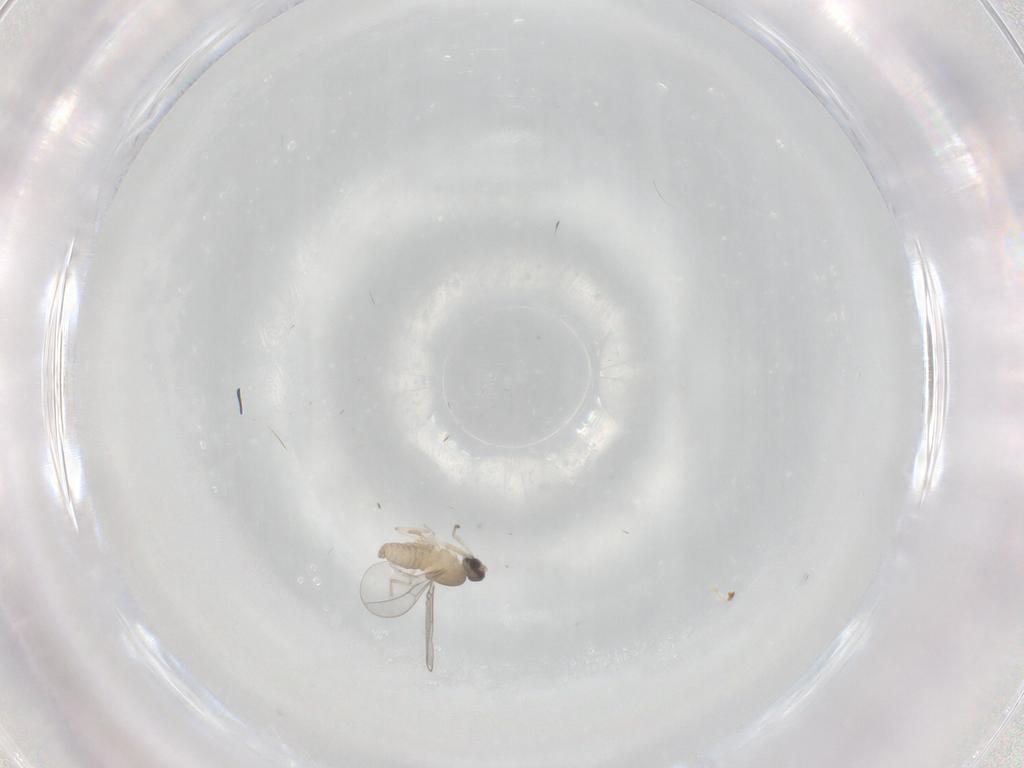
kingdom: Animalia
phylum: Arthropoda
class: Insecta
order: Diptera
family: Cecidomyiidae
